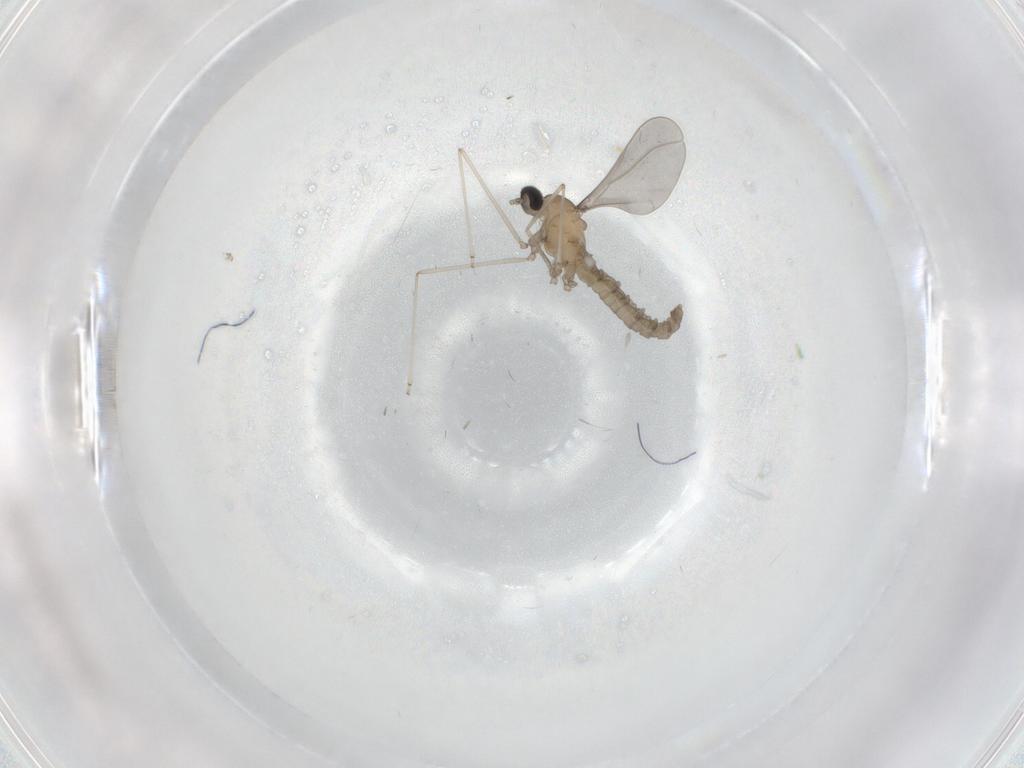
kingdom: Animalia
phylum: Arthropoda
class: Insecta
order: Diptera
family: Chironomidae
